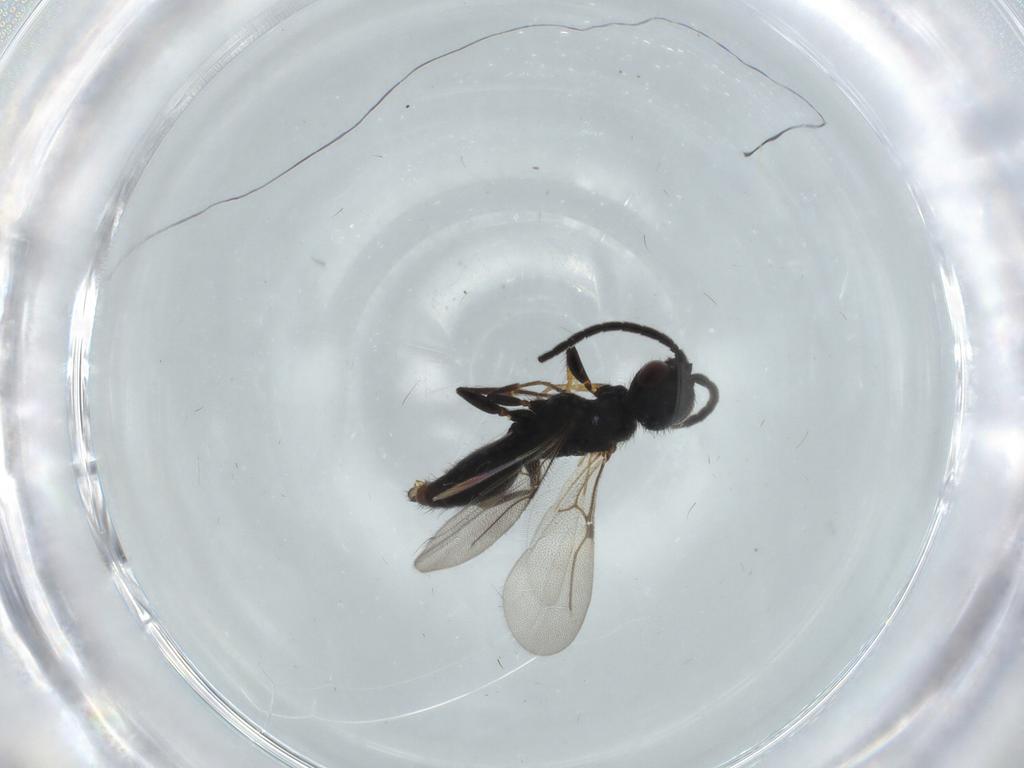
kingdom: Animalia
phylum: Arthropoda
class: Insecta
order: Hymenoptera
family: Bethylidae
